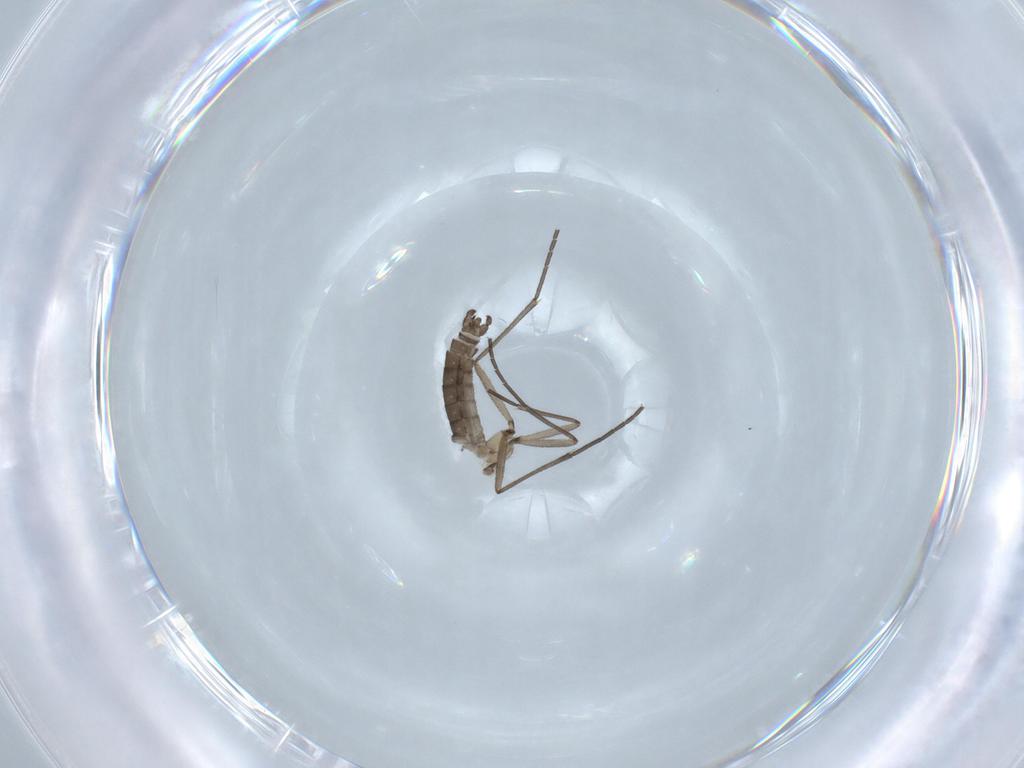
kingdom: Animalia
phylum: Arthropoda
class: Insecta
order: Diptera
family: Sciaridae
